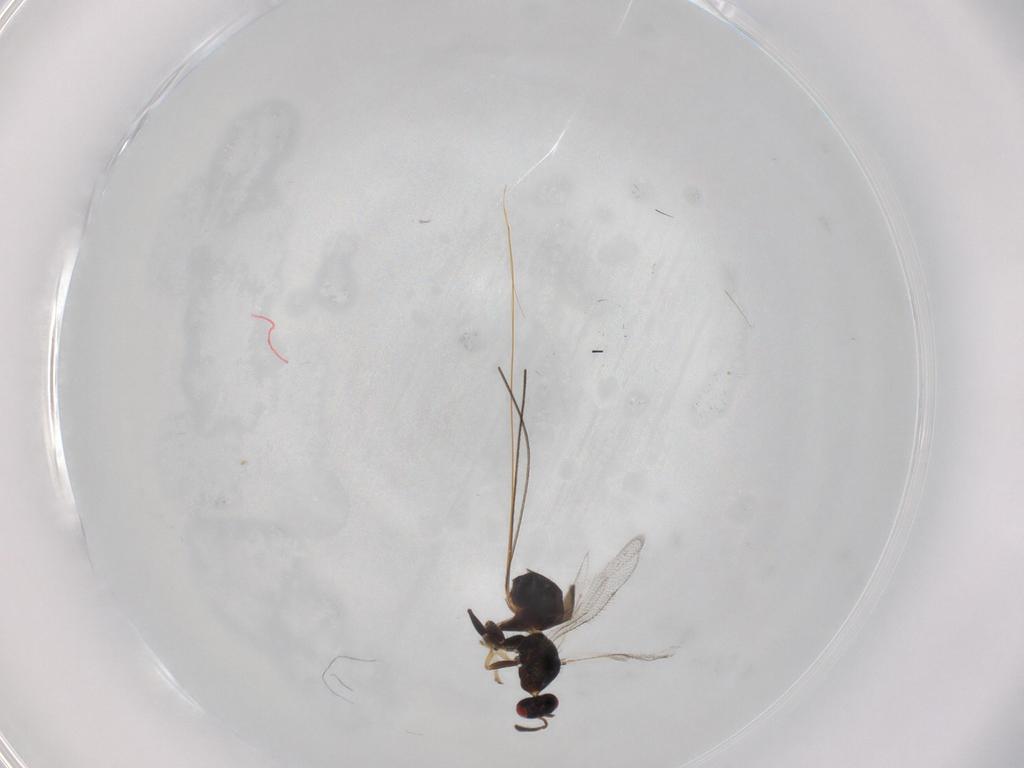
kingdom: Animalia
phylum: Arthropoda
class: Insecta
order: Hymenoptera
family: Torymidae
